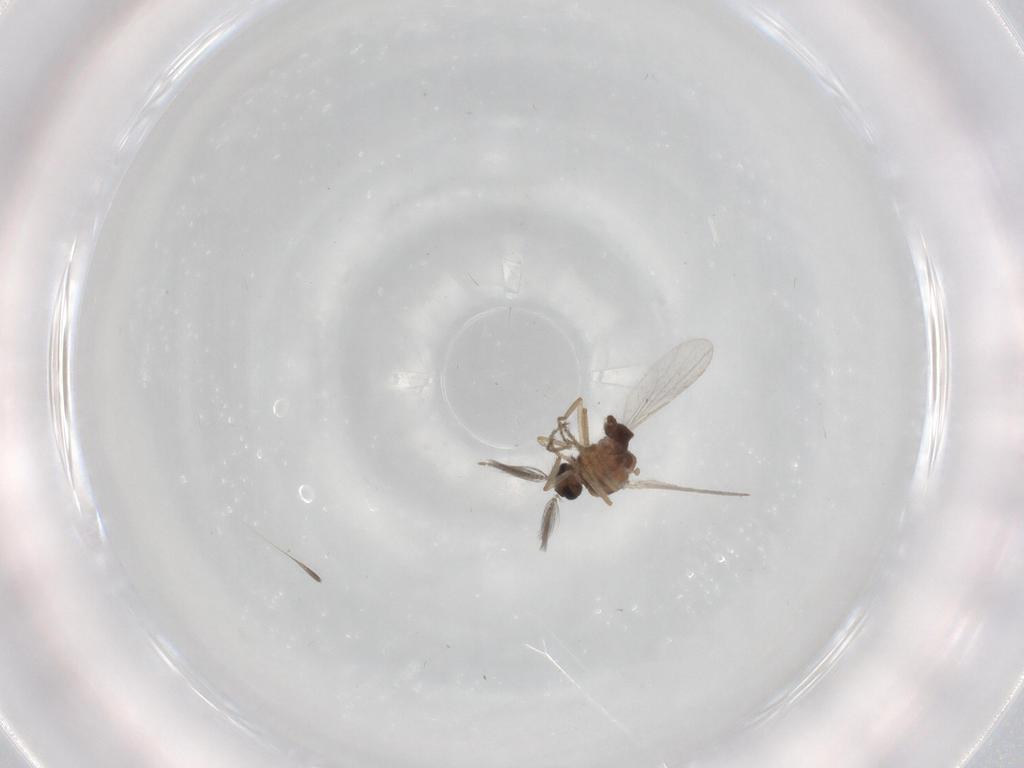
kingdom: Animalia
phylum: Arthropoda
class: Insecta
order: Diptera
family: Ceratopogonidae
